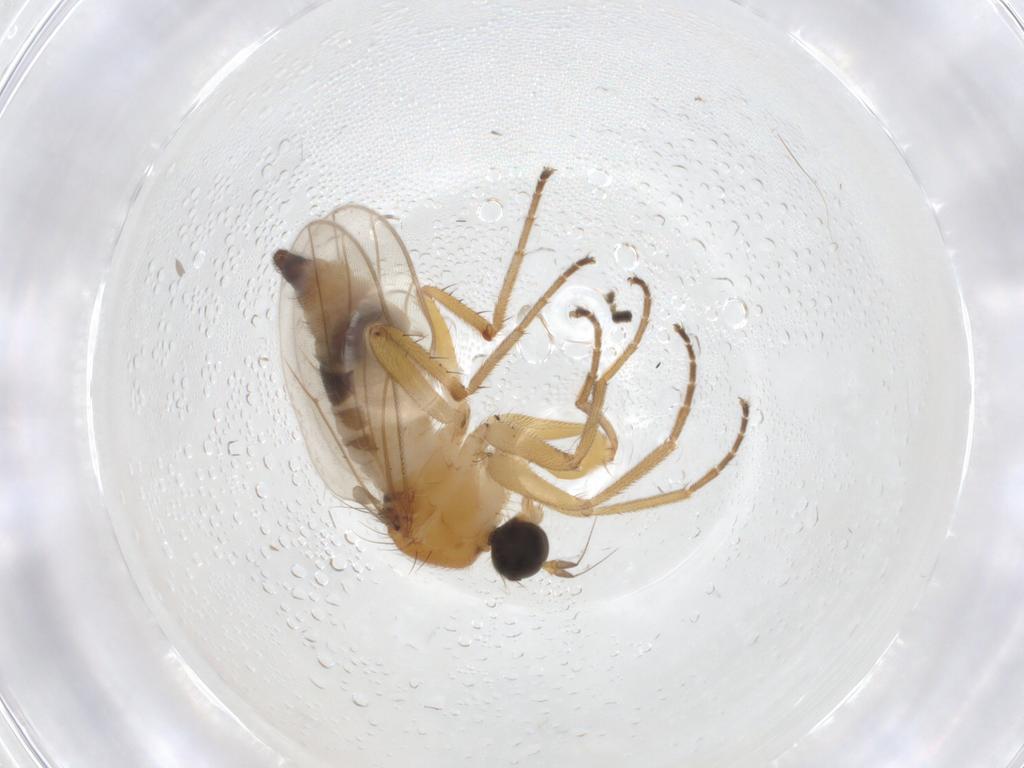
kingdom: Animalia
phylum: Arthropoda
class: Insecta
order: Diptera
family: Hybotidae
